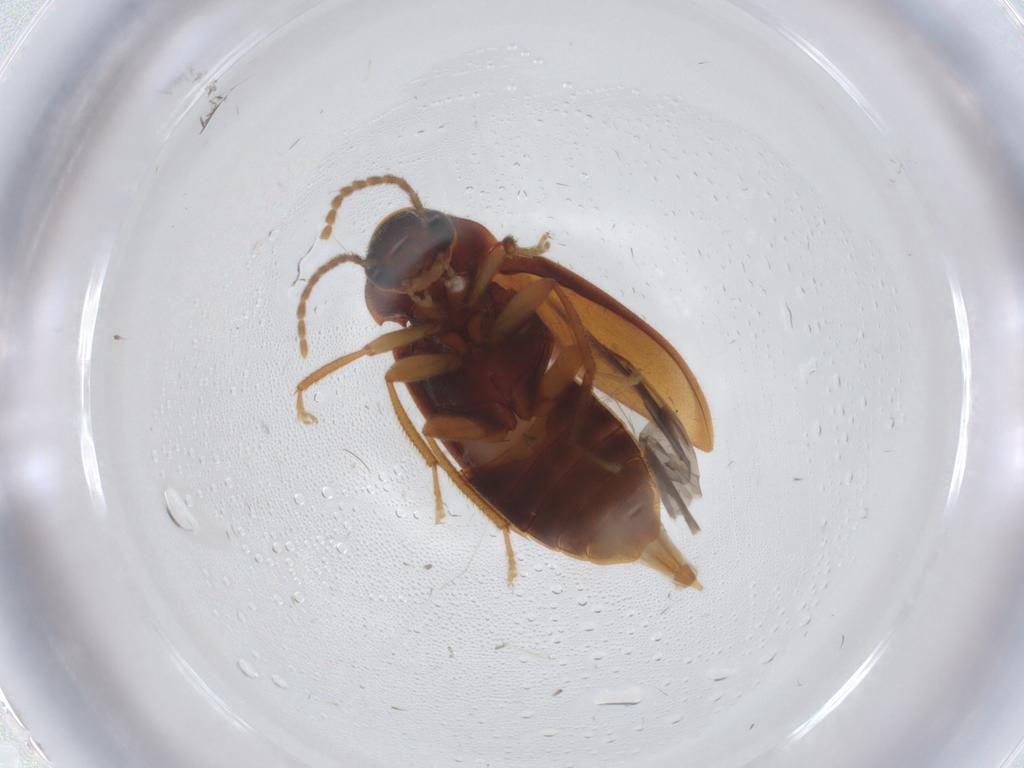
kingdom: Animalia
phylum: Arthropoda
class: Insecta
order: Coleoptera
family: Ptilodactylidae
